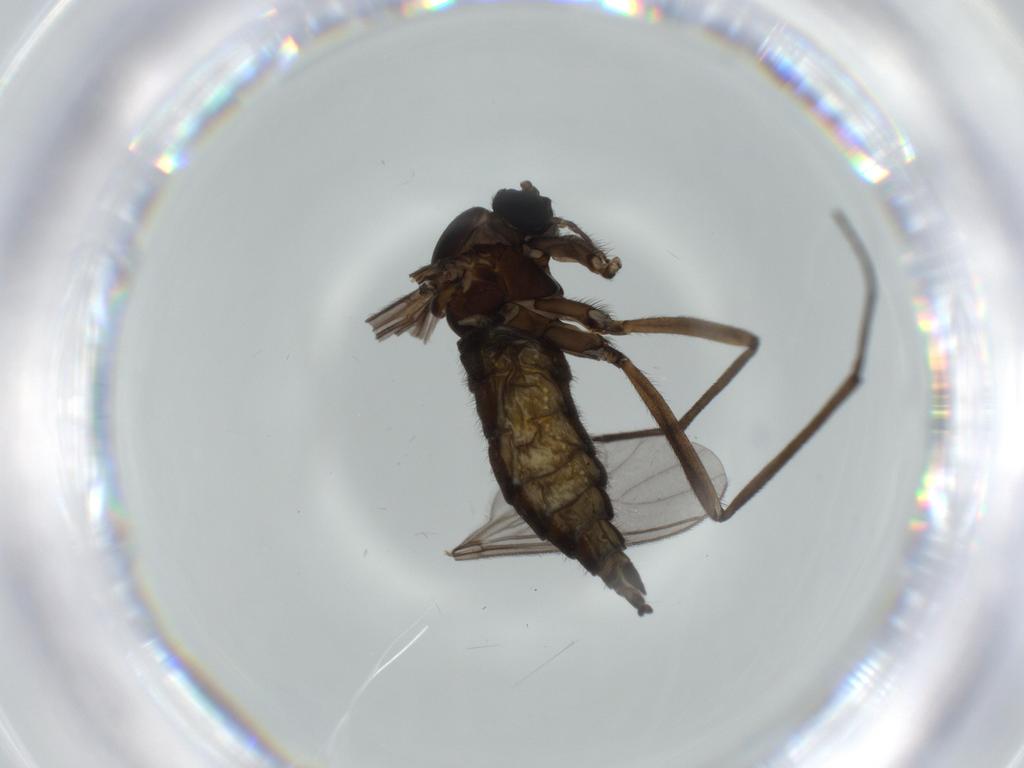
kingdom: Animalia
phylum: Arthropoda
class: Insecta
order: Diptera
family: Sciaridae
